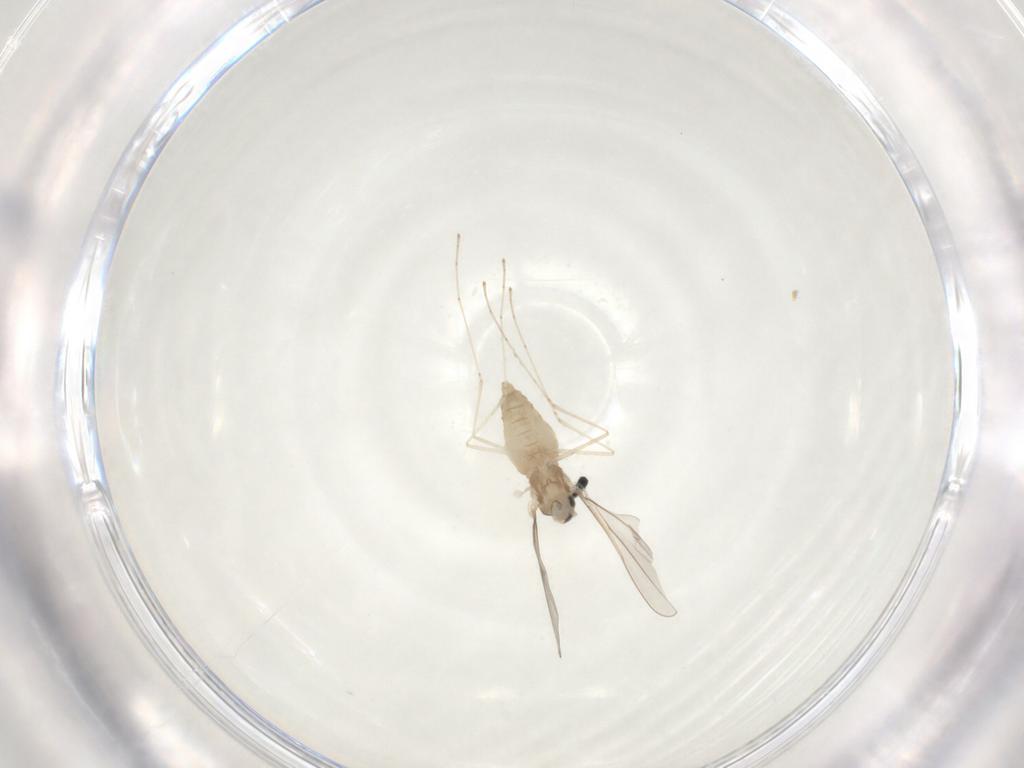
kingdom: Animalia
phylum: Arthropoda
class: Insecta
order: Diptera
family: Cecidomyiidae
